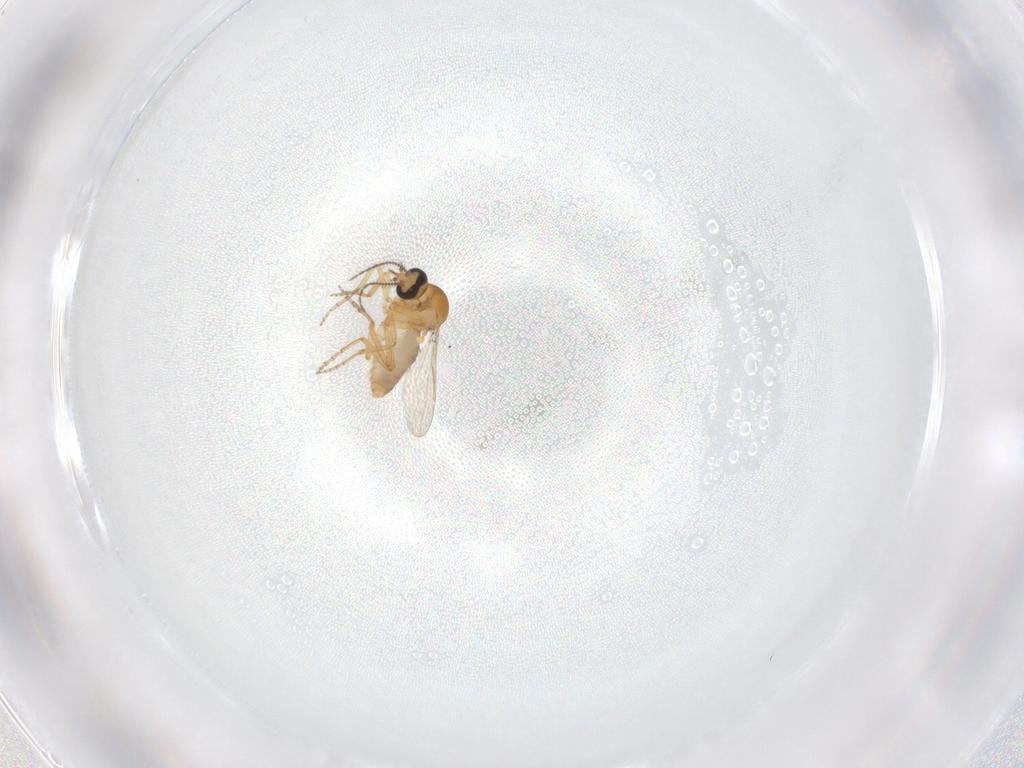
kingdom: Animalia
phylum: Arthropoda
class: Insecta
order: Diptera
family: Ceratopogonidae
